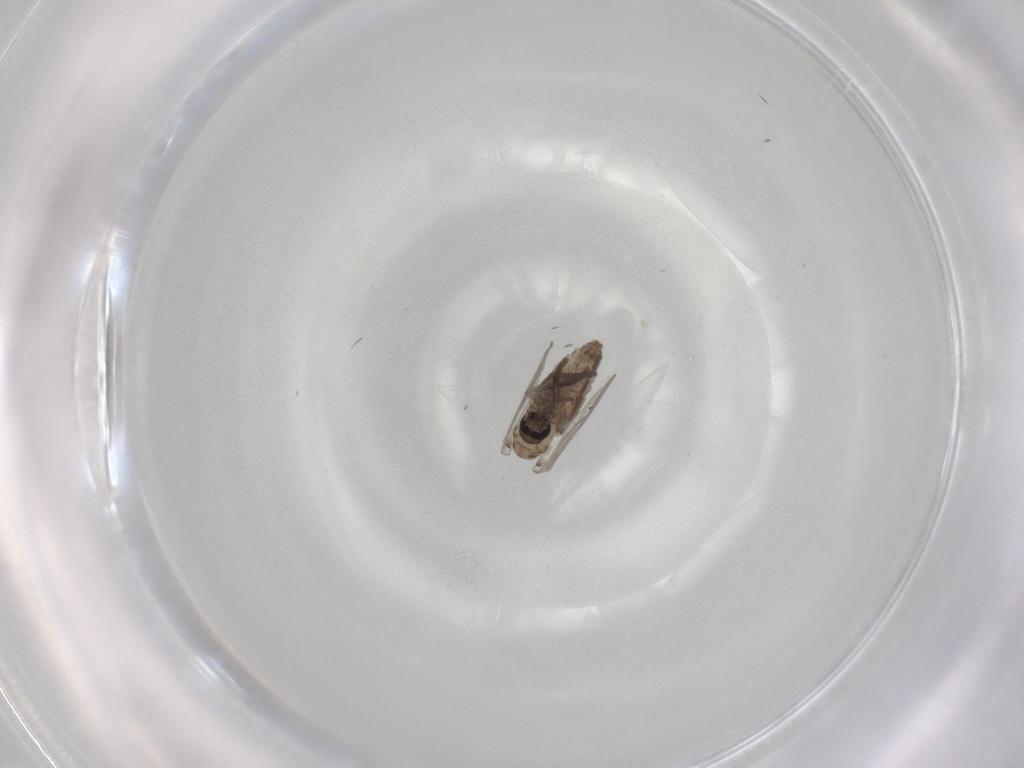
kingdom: Animalia
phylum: Arthropoda
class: Insecta
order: Diptera
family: Psychodidae
